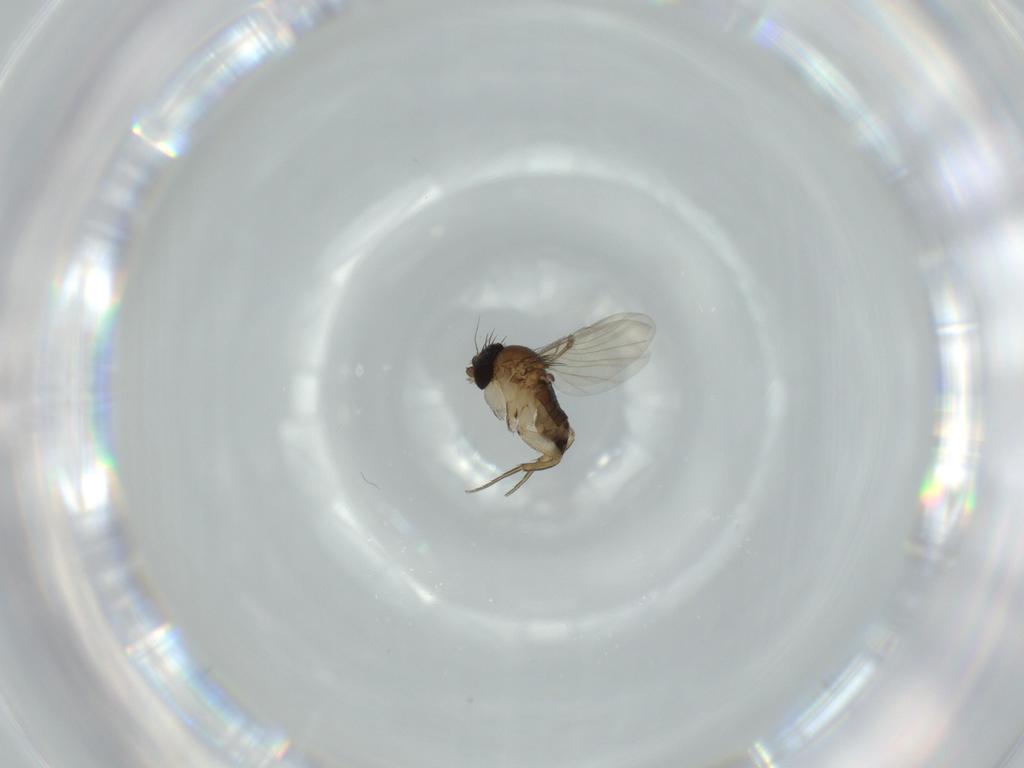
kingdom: Animalia
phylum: Arthropoda
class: Insecta
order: Diptera
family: Phoridae
